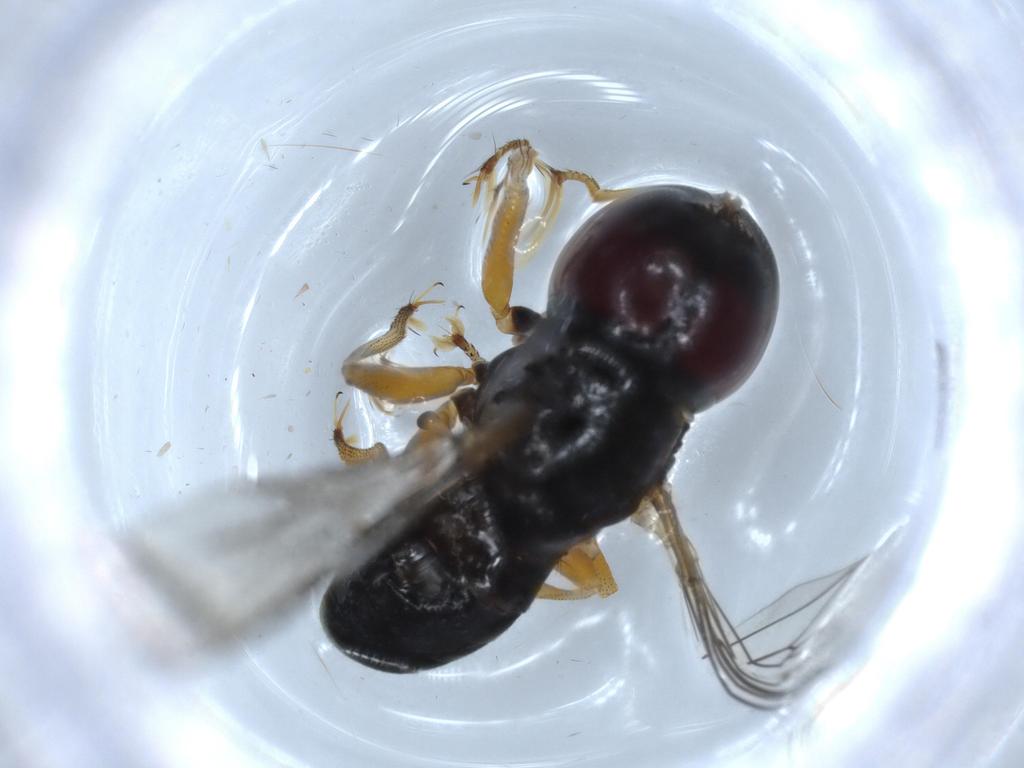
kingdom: Animalia
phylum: Arthropoda
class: Insecta
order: Diptera
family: Pipunculidae
